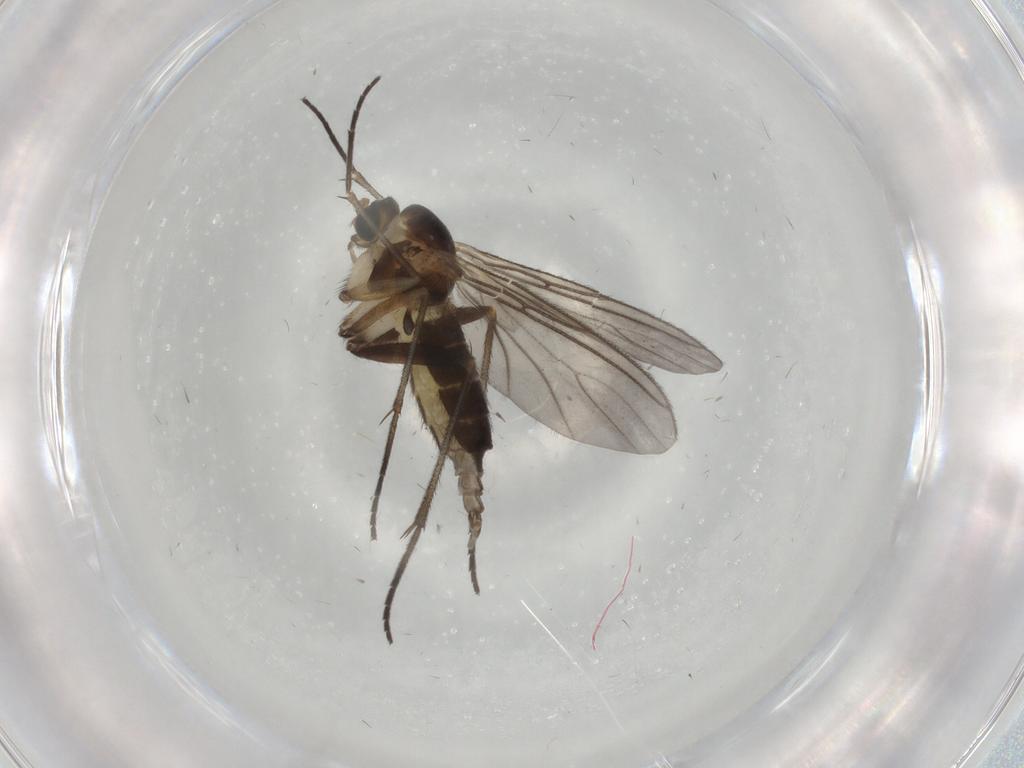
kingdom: Animalia
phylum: Arthropoda
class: Insecta
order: Diptera
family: Sciaridae
